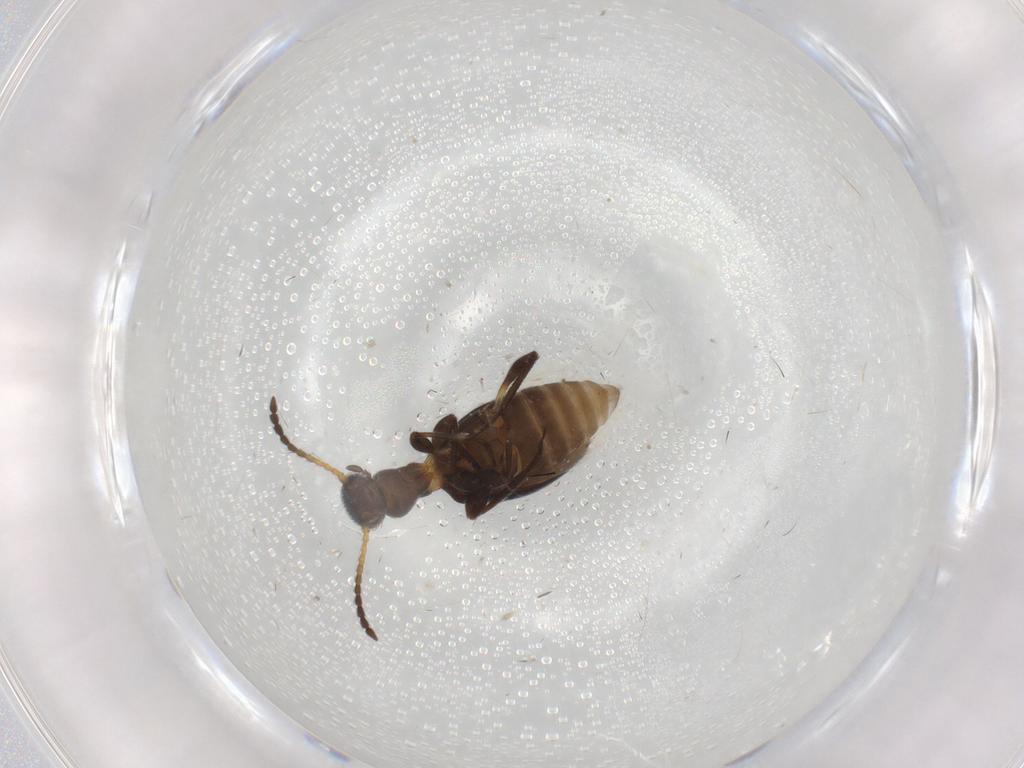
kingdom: Animalia
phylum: Arthropoda
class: Insecta
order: Coleoptera
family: Anthicidae
